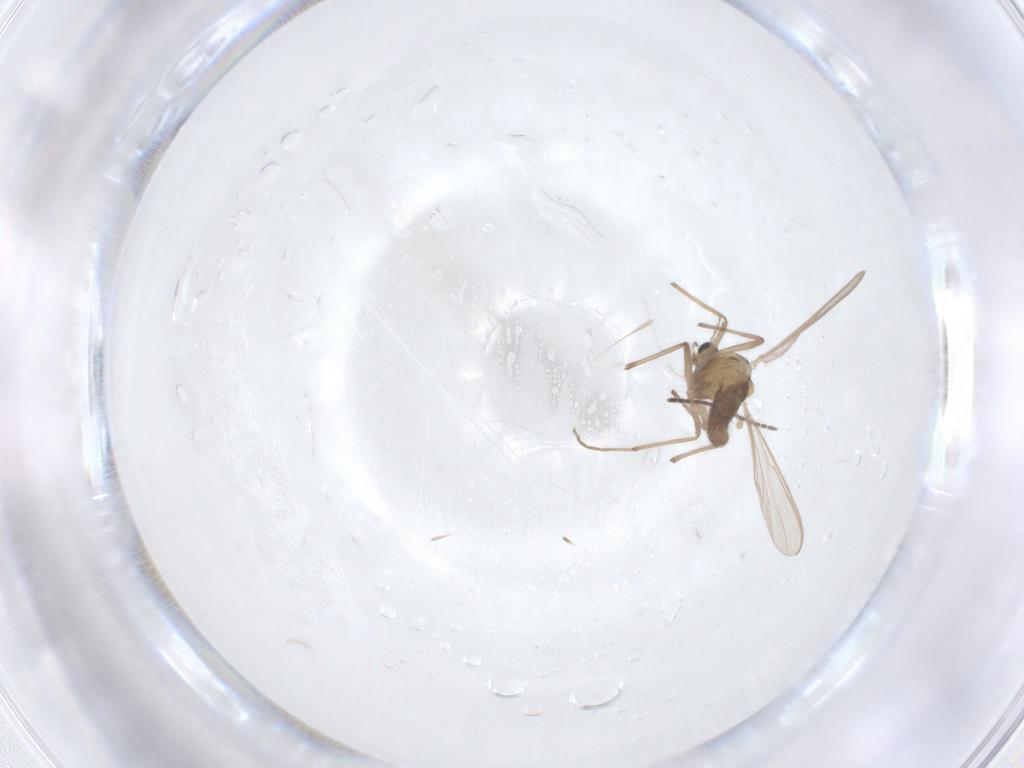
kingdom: Animalia
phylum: Arthropoda
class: Insecta
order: Diptera
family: Chironomidae
